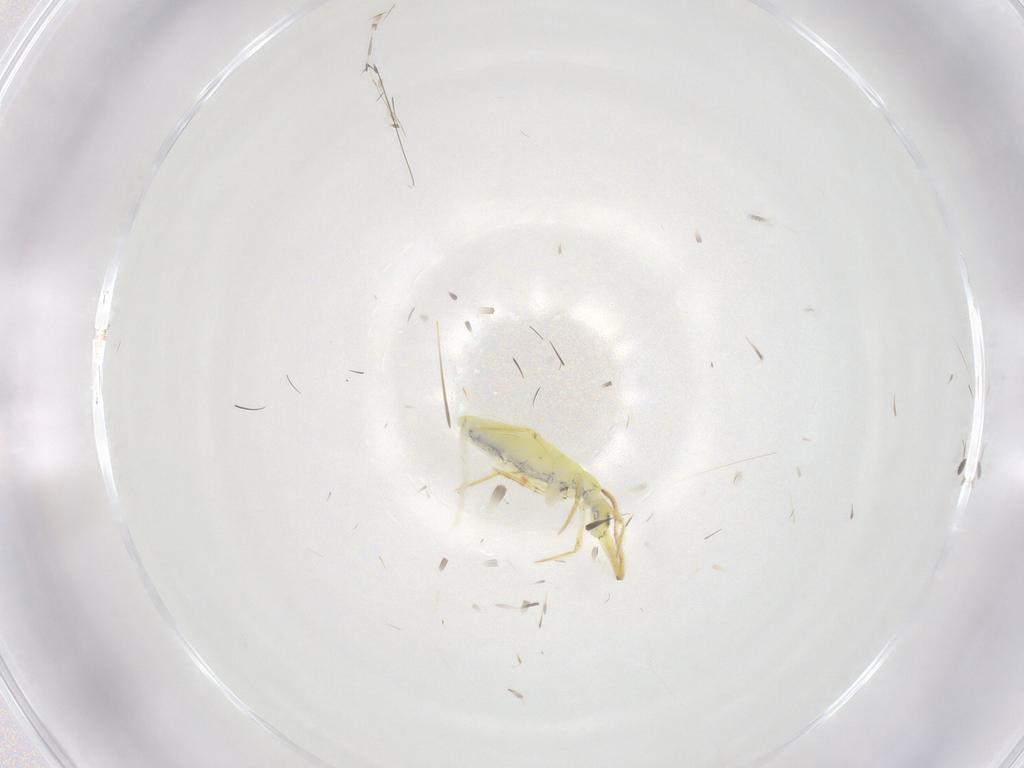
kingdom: Animalia
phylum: Arthropoda
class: Collembola
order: Entomobryomorpha
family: Paronellidae
